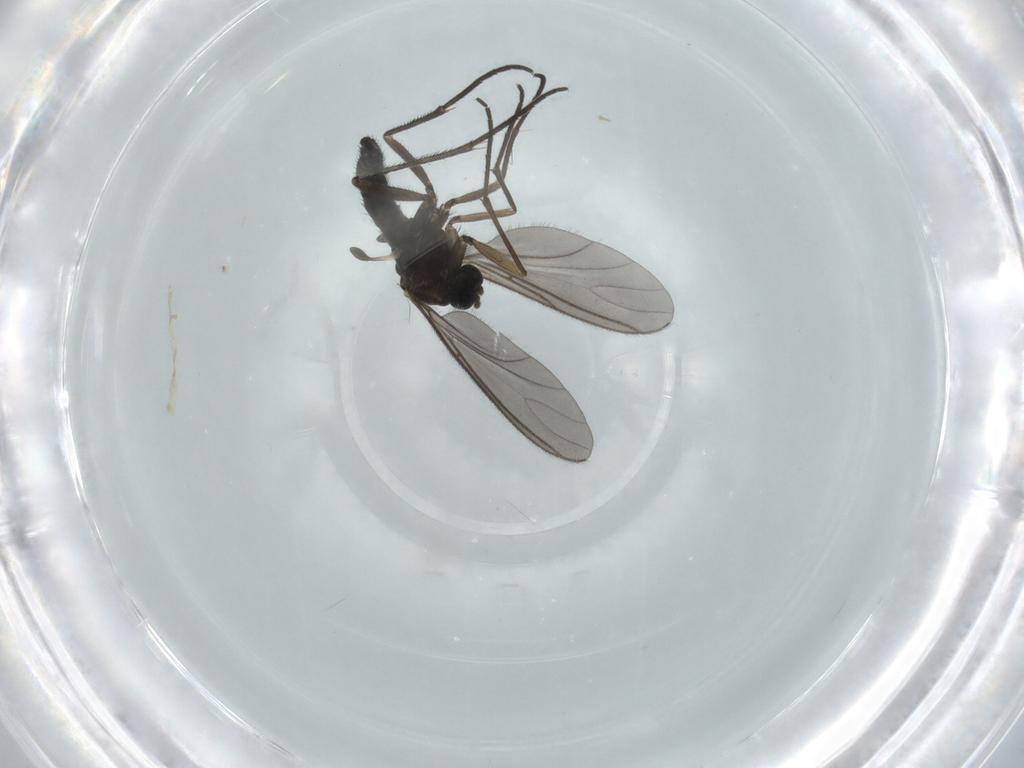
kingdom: Animalia
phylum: Arthropoda
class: Insecta
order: Diptera
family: Sciaridae
